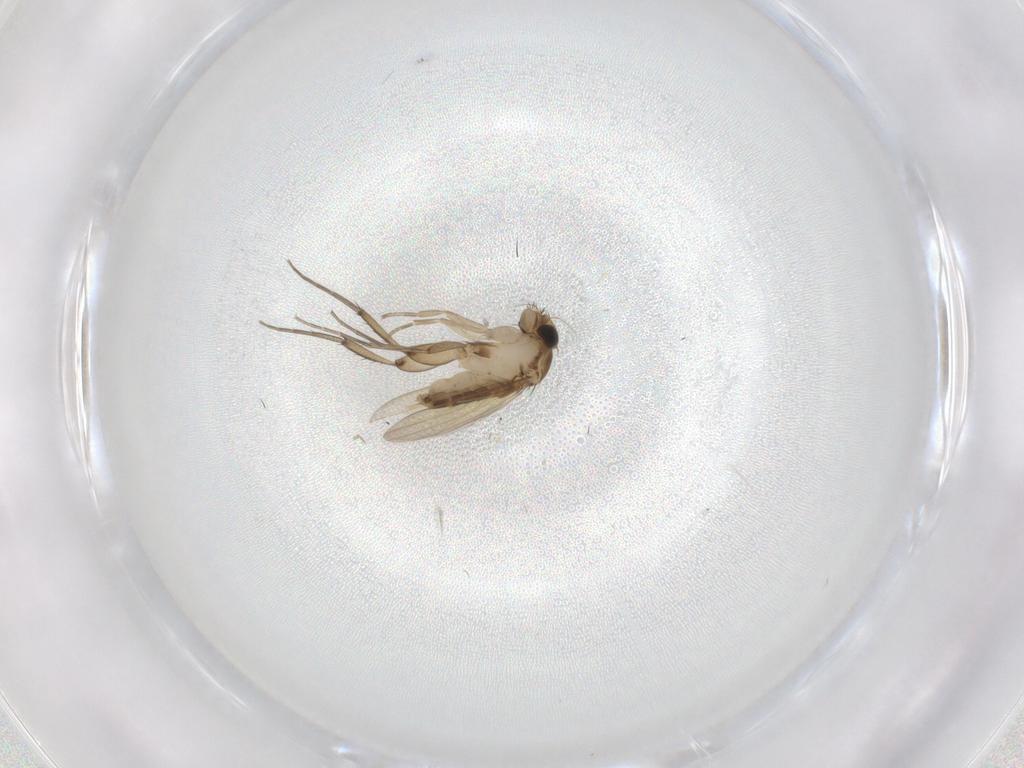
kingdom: Animalia
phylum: Arthropoda
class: Insecta
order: Diptera
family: Phoridae
